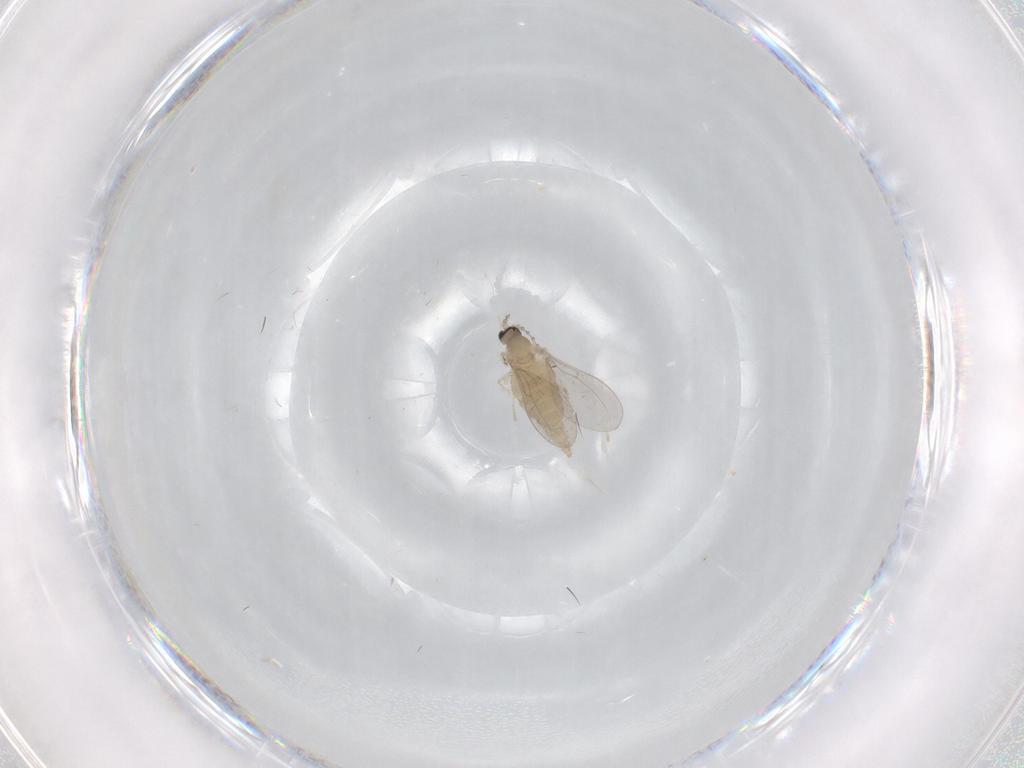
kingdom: Animalia
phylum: Arthropoda
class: Insecta
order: Diptera
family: Cecidomyiidae
